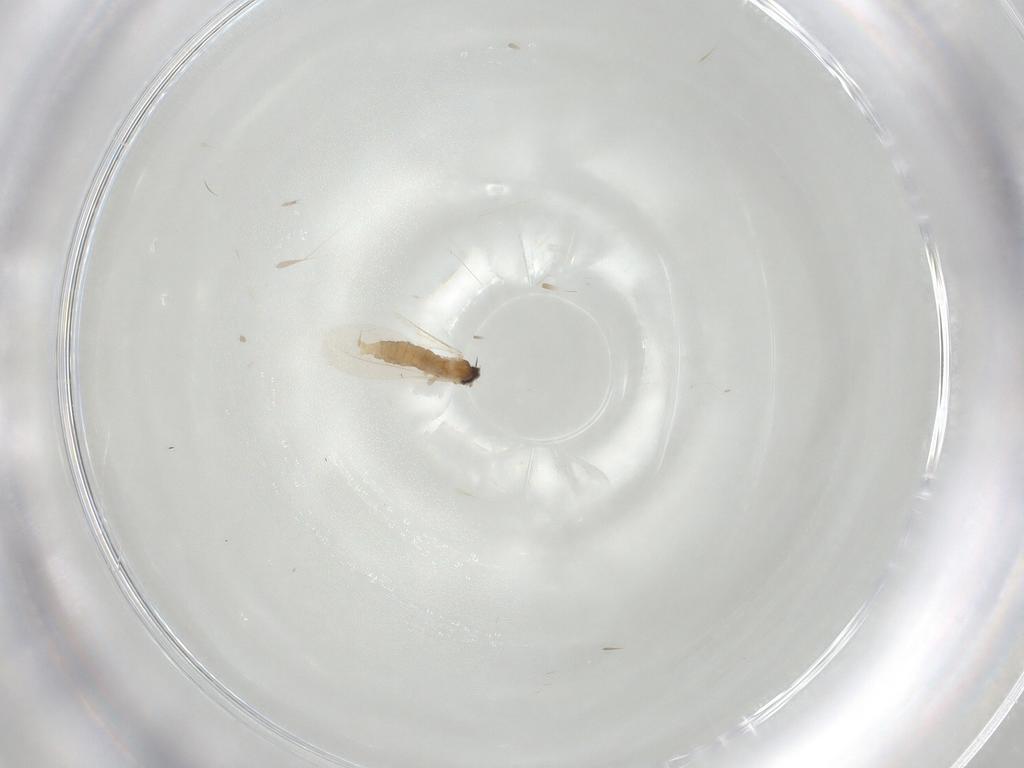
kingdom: Animalia
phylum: Arthropoda
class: Insecta
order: Diptera
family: Cecidomyiidae
